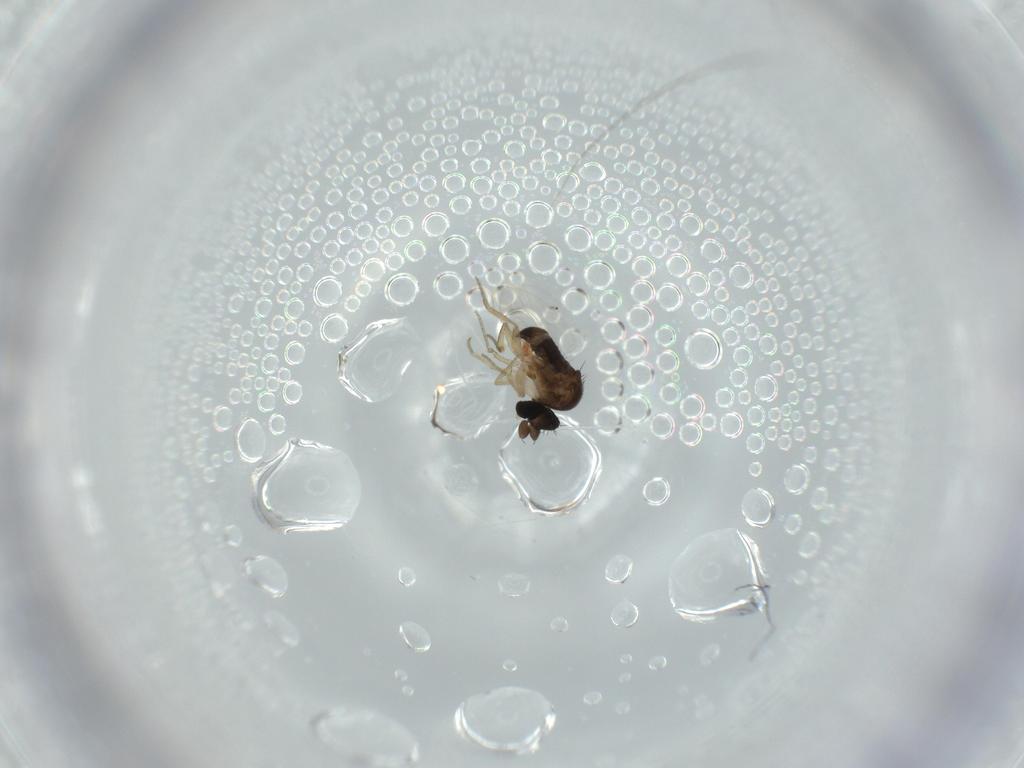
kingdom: Animalia
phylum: Arthropoda
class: Insecta
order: Diptera
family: Phoridae
